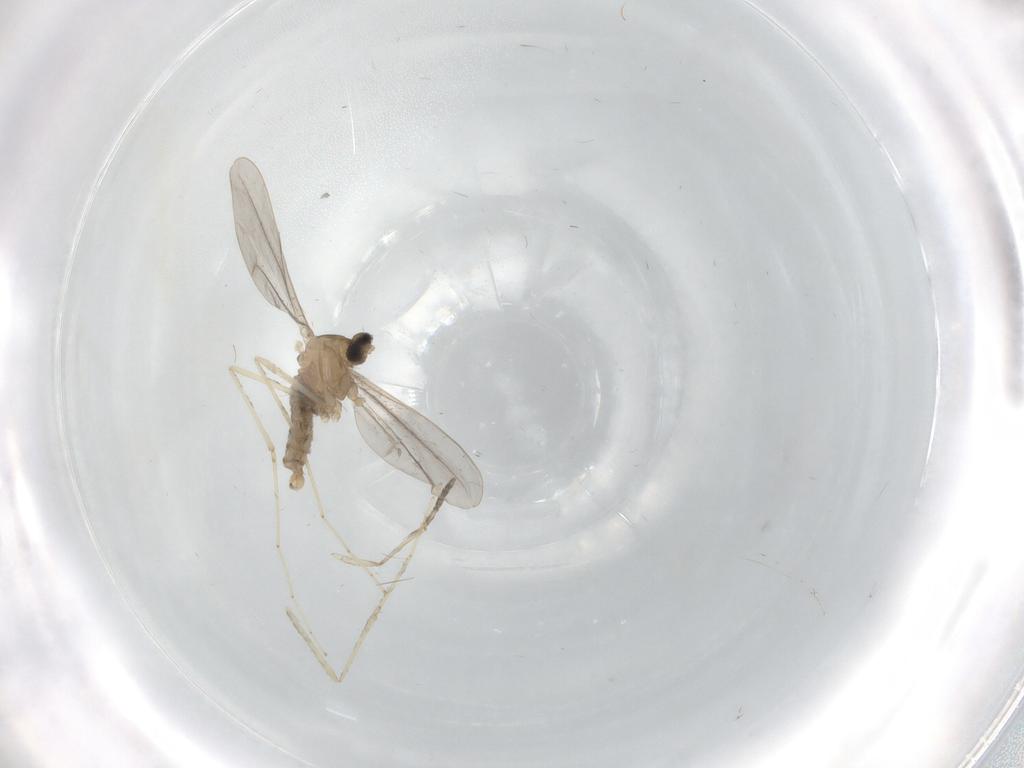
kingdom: Animalia
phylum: Arthropoda
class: Insecta
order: Diptera
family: Cecidomyiidae
